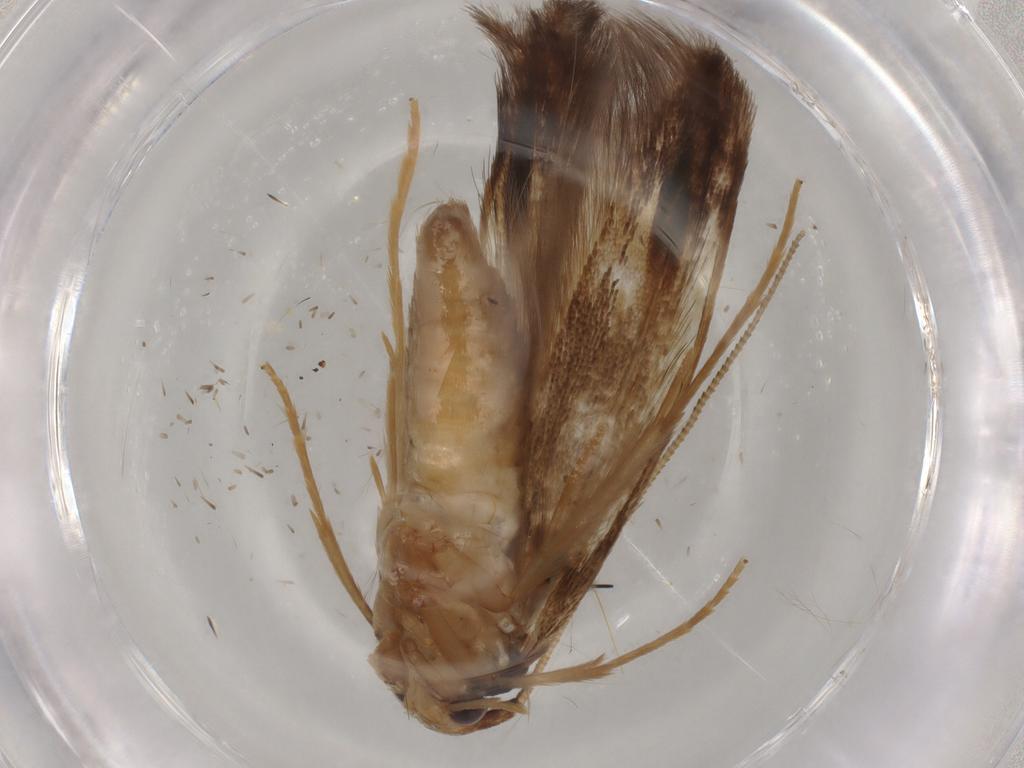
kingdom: Animalia
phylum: Arthropoda
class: Insecta
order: Lepidoptera
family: Tineidae
